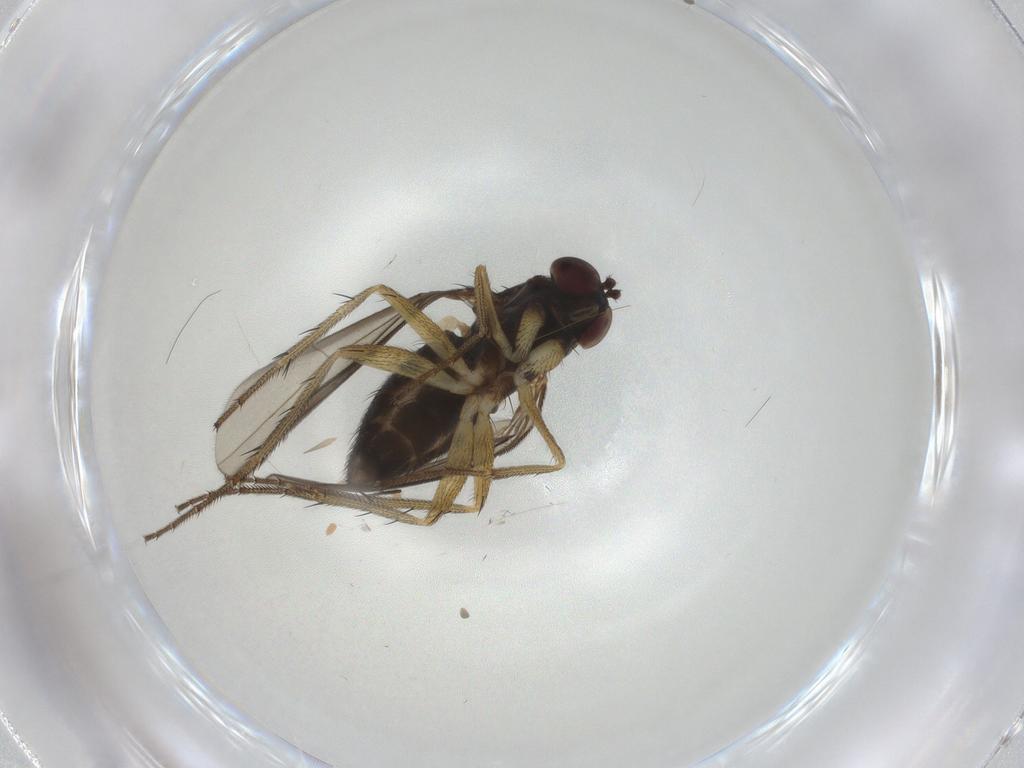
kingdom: Animalia
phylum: Arthropoda
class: Insecta
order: Diptera
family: Dolichopodidae
